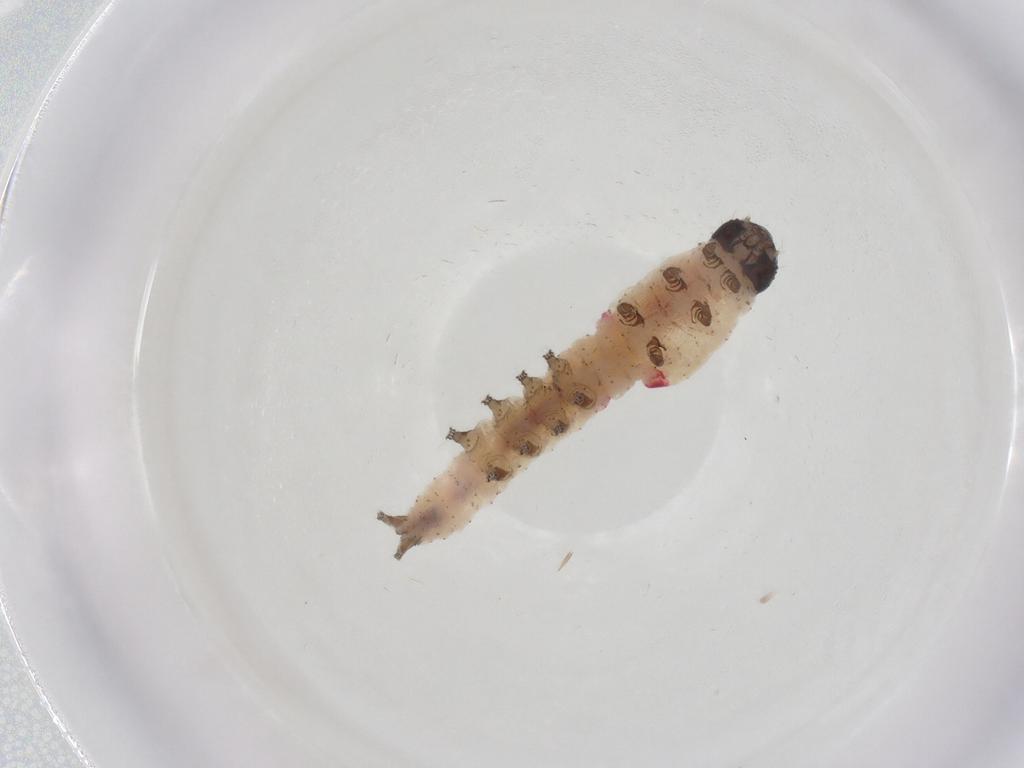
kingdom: Animalia
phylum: Arthropoda
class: Insecta
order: Lepidoptera
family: Notodontidae
